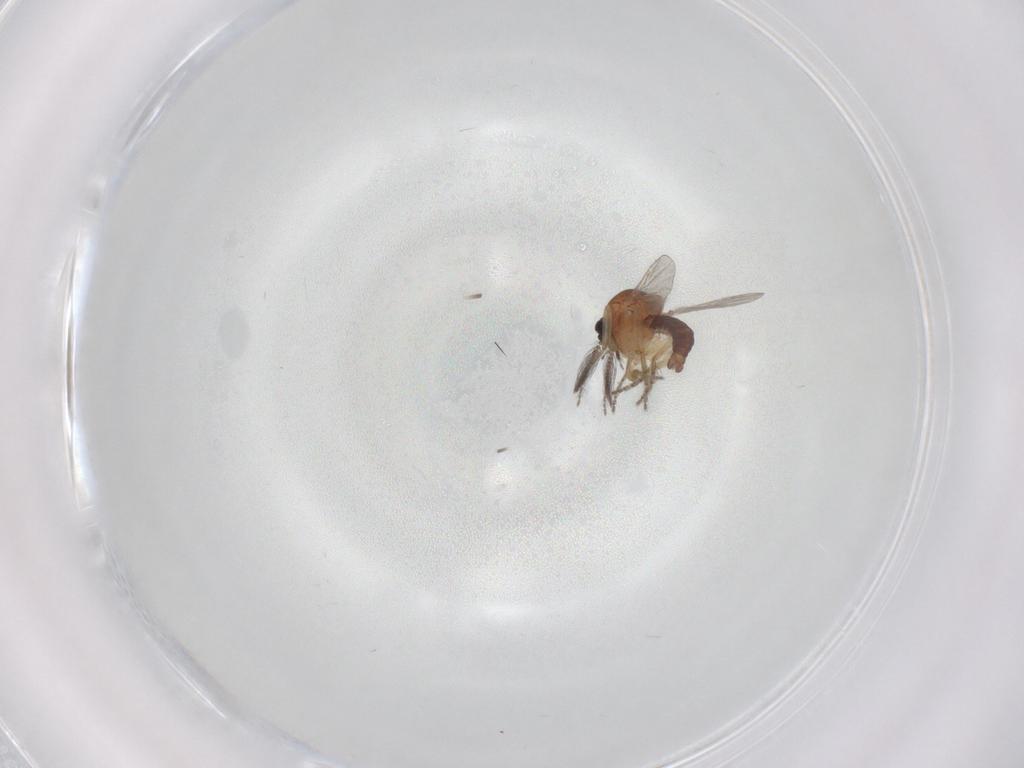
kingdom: Animalia
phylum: Arthropoda
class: Insecta
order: Diptera
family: Ceratopogonidae
